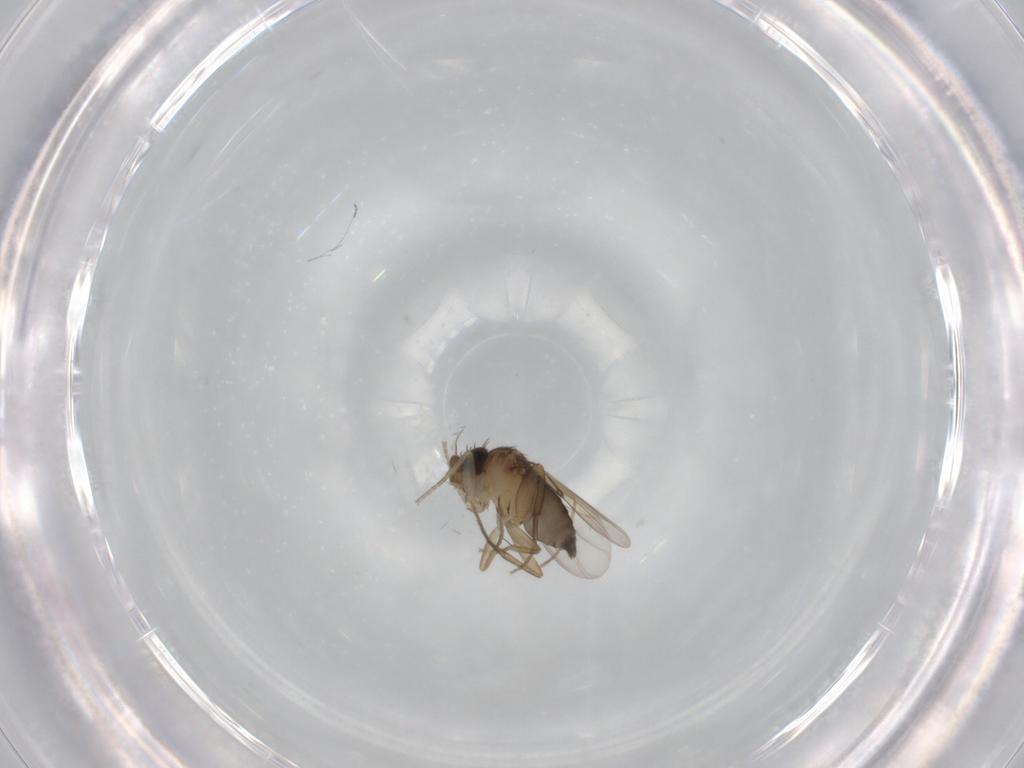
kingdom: Animalia
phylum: Arthropoda
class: Insecta
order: Diptera
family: Phoridae
